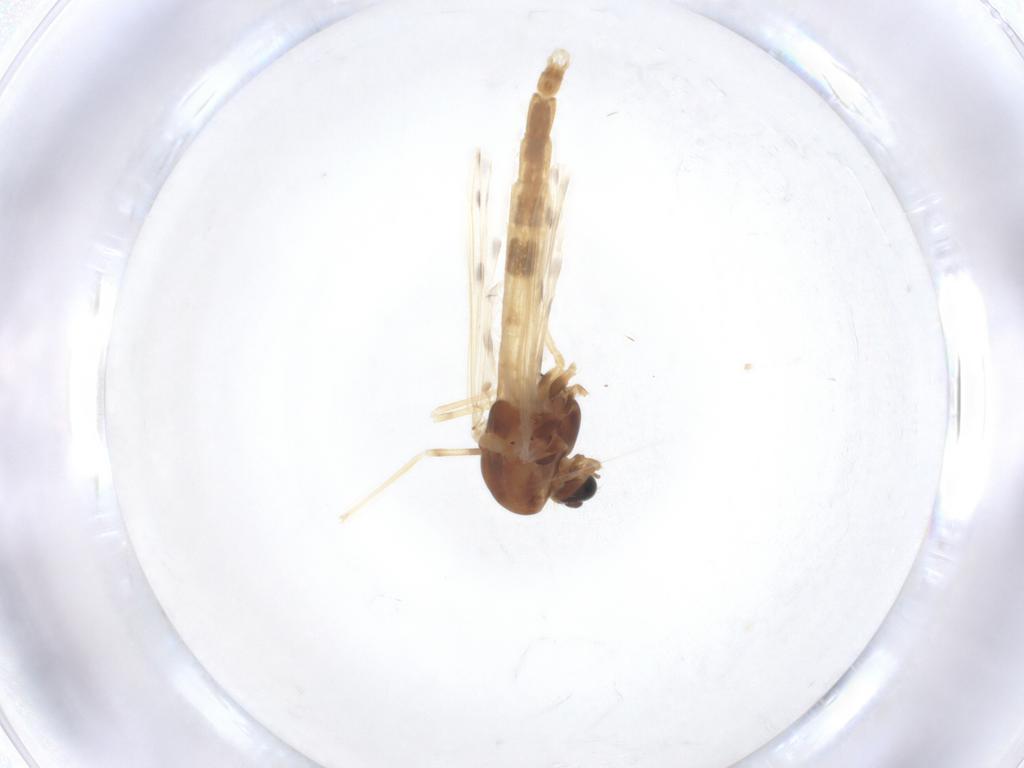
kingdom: Animalia
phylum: Arthropoda
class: Insecta
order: Diptera
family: Chironomidae
